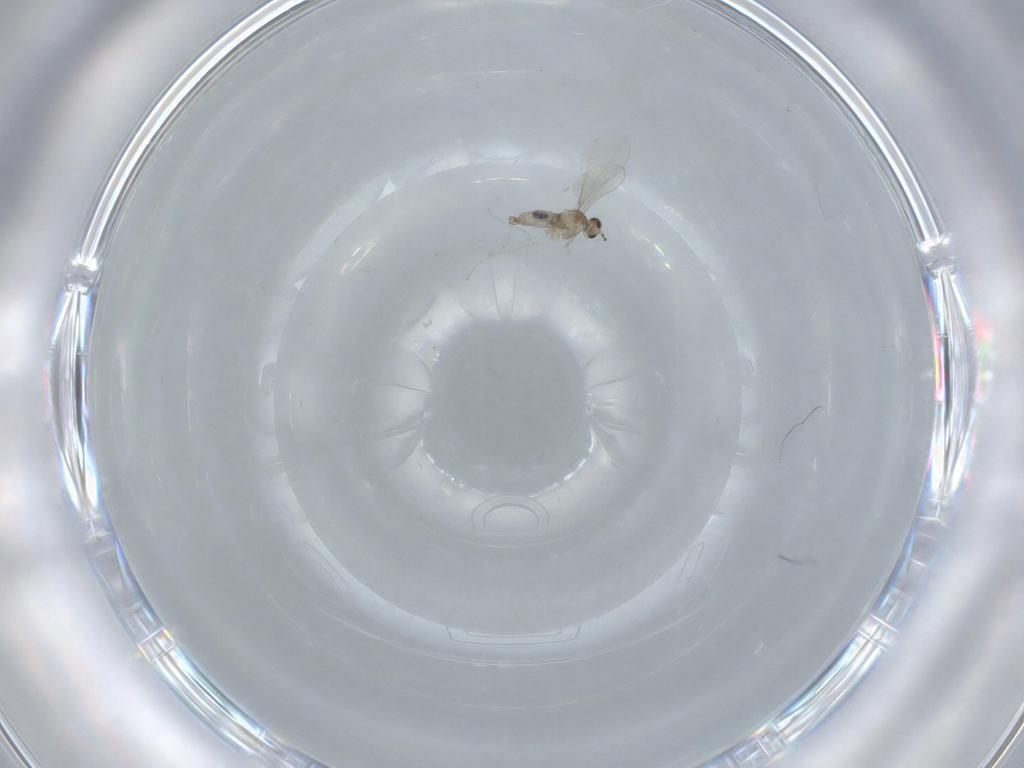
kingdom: Animalia
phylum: Arthropoda
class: Insecta
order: Diptera
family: Cecidomyiidae
